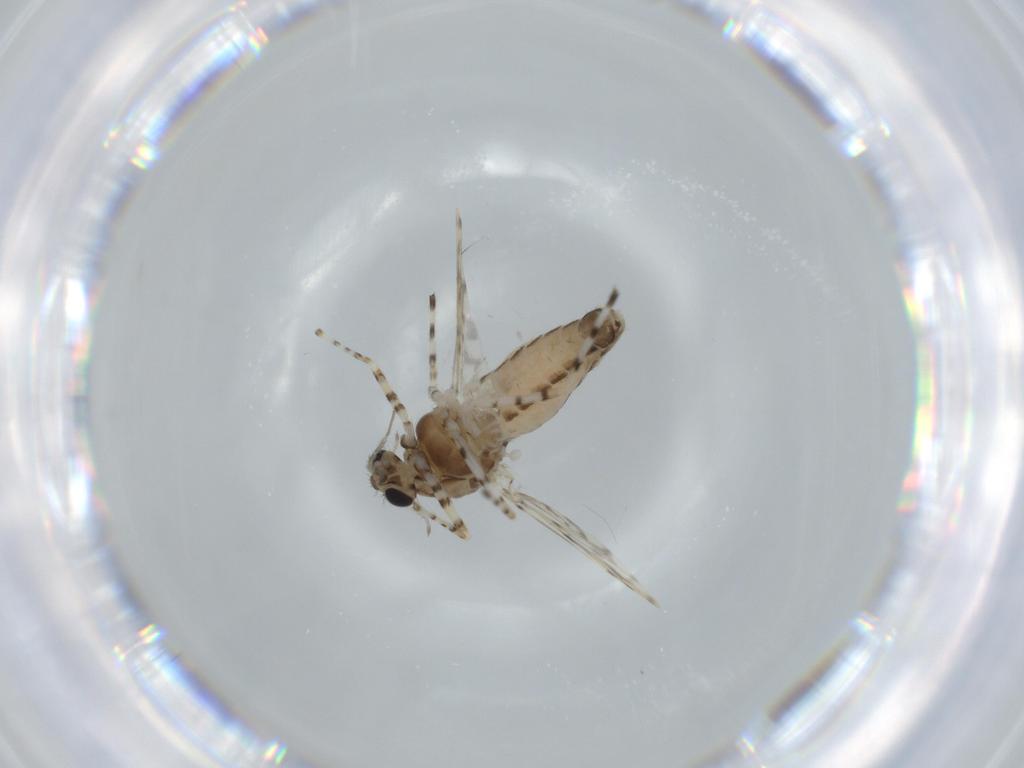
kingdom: Animalia
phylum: Arthropoda
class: Insecta
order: Diptera
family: Chironomidae
